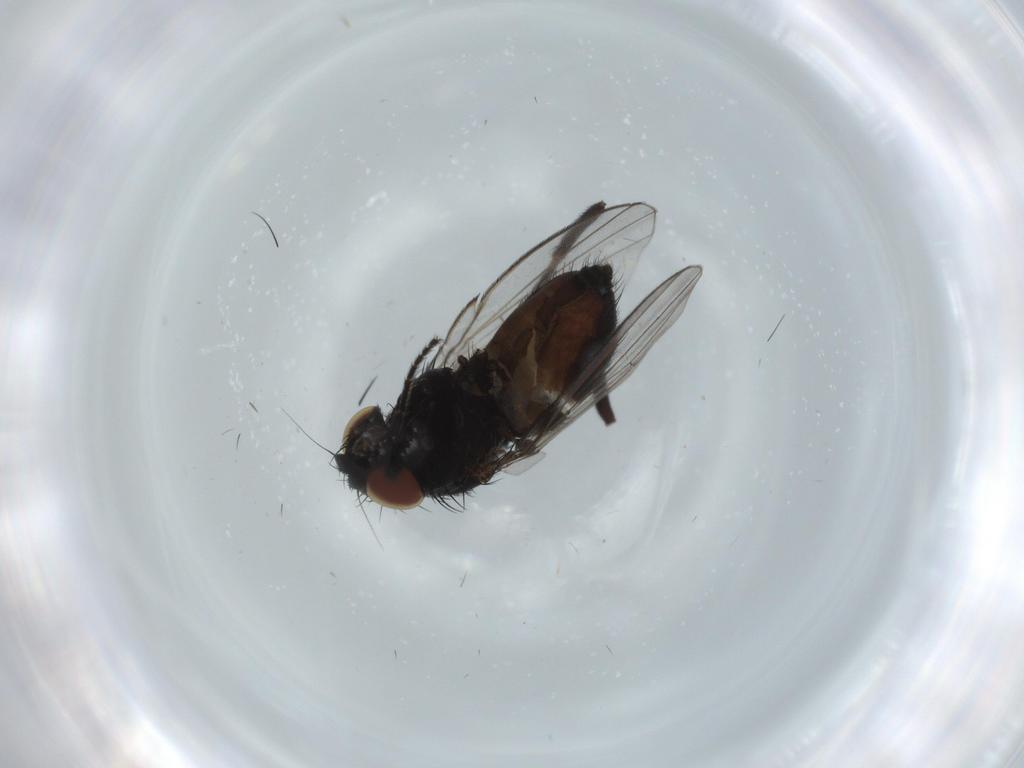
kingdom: Animalia
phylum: Arthropoda
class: Insecta
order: Diptera
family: Milichiidae
